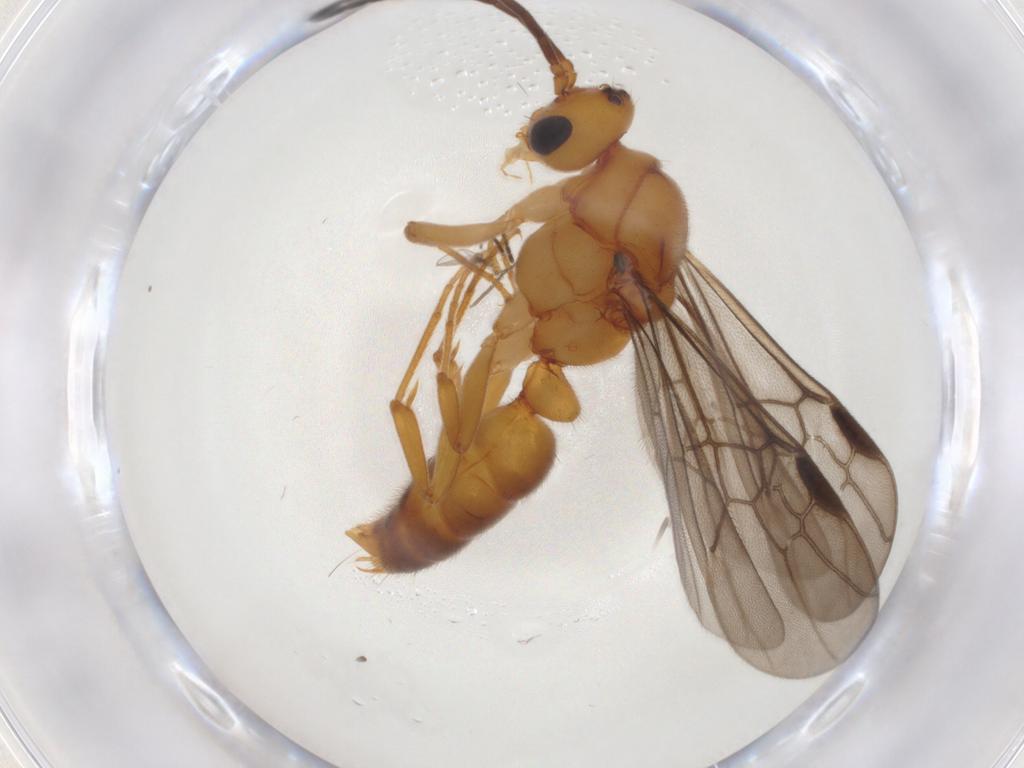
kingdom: Animalia
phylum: Arthropoda
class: Insecta
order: Hymenoptera
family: Formicidae
